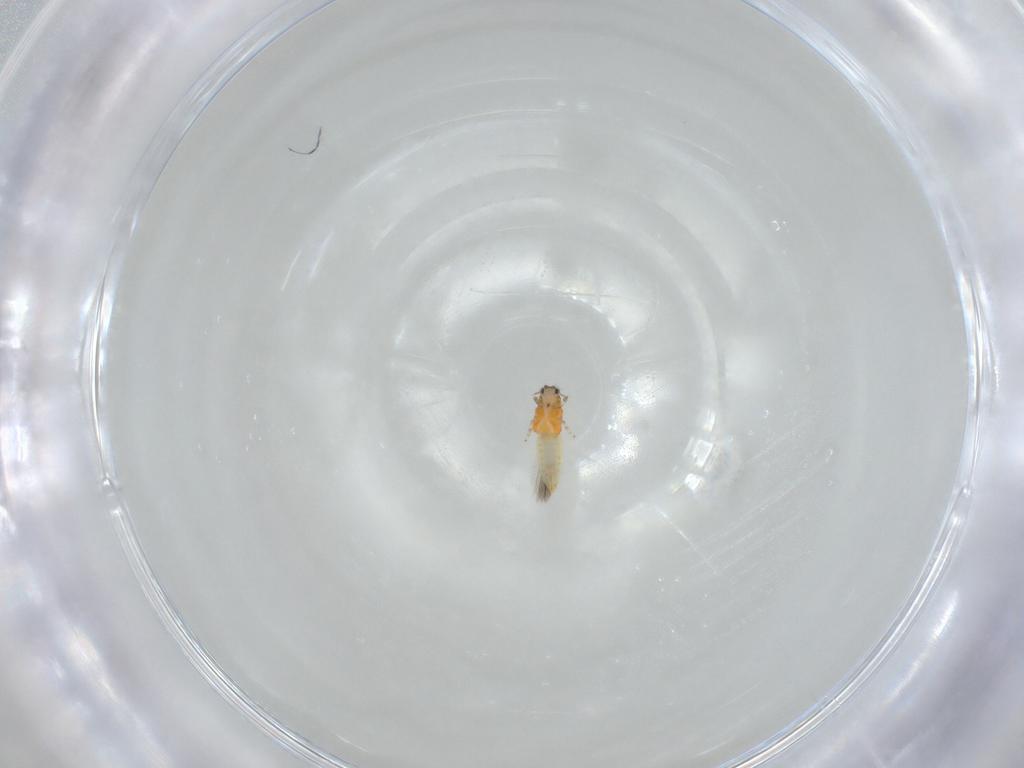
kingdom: Animalia
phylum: Arthropoda
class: Insecta
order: Thysanoptera
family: Thripidae
